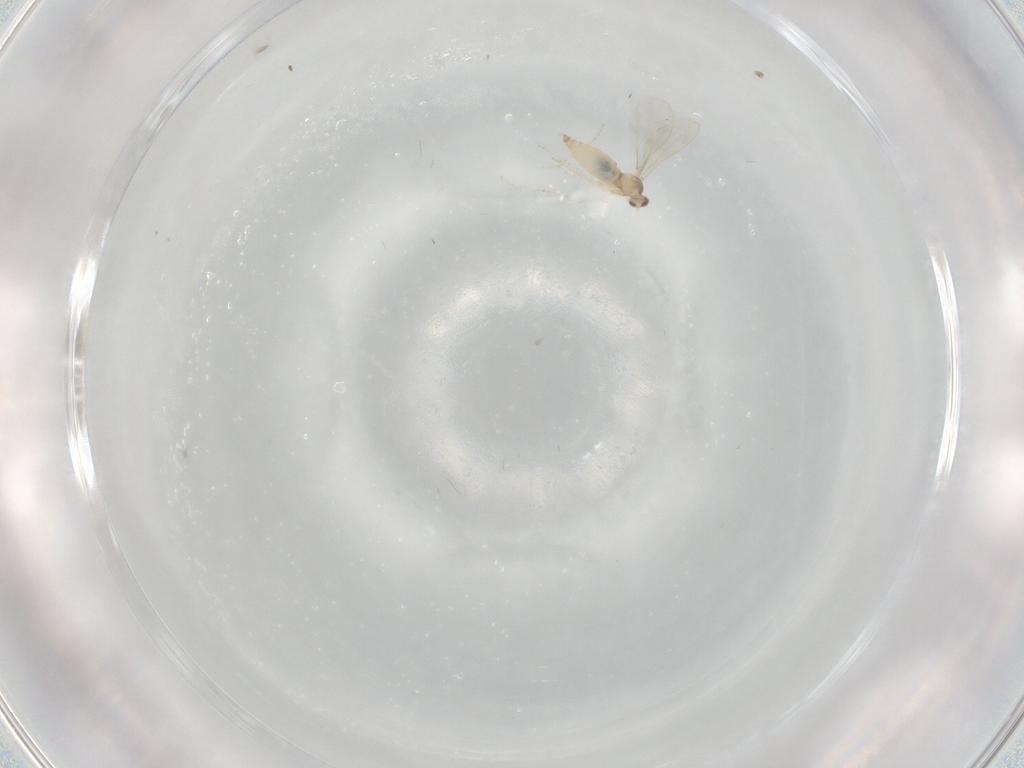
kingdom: Animalia
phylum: Arthropoda
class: Insecta
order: Diptera
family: Cecidomyiidae
